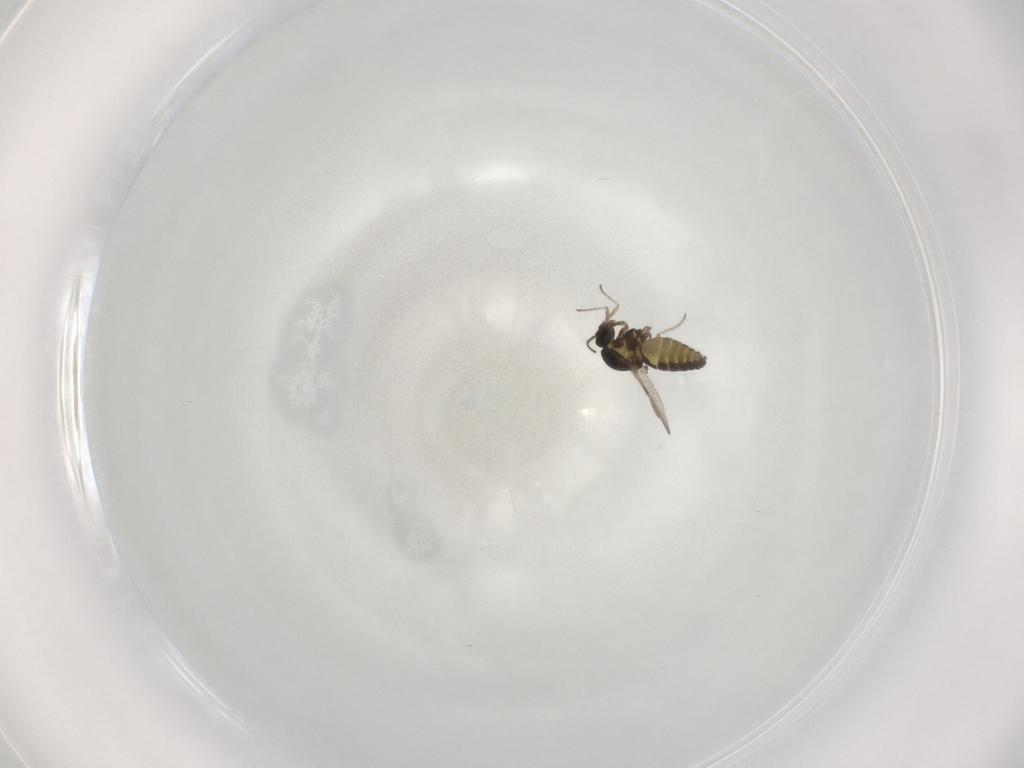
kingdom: Animalia
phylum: Arthropoda
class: Insecta
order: Diptera
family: Ceratopogonidae
